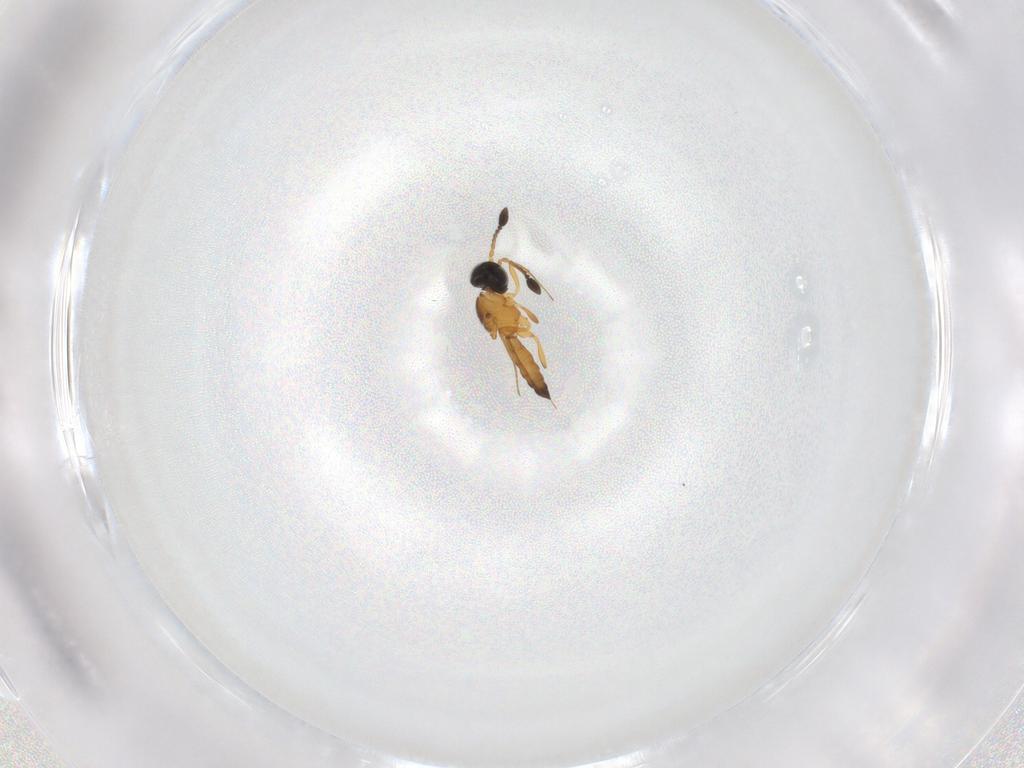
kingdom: Animalia
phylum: Arthropoda
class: Insecta
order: Hymenoptera
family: Scelionidae
